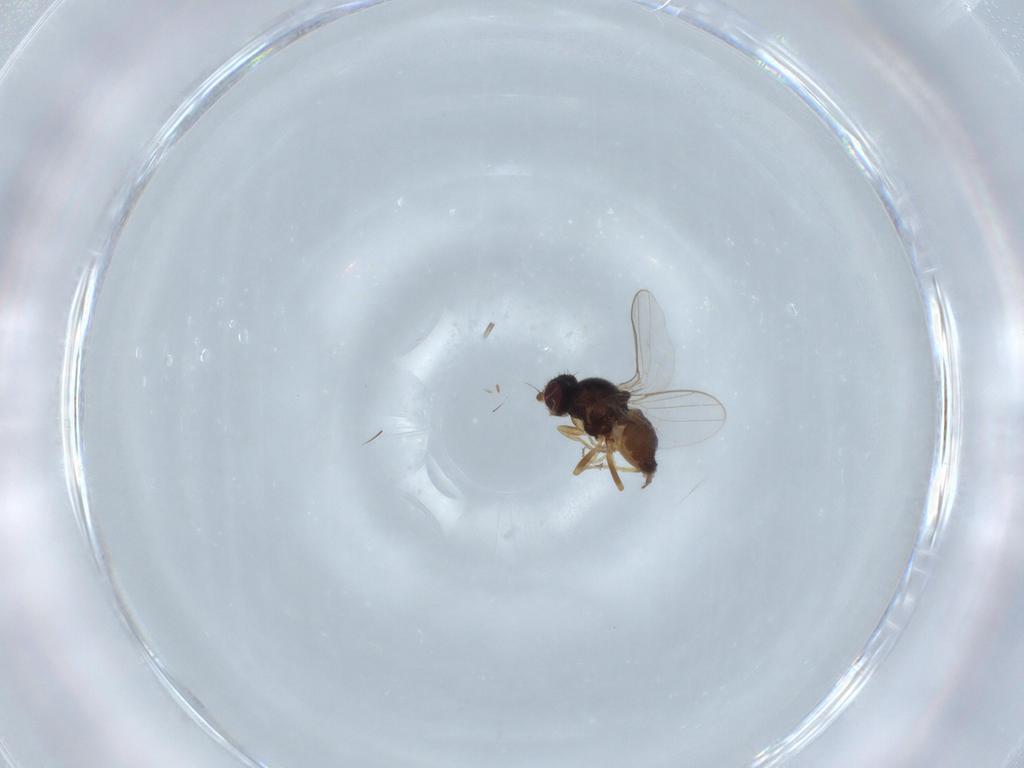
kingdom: Animalia
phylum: Arthropoda
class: Insecta
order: Diptera
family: Chloropidae
